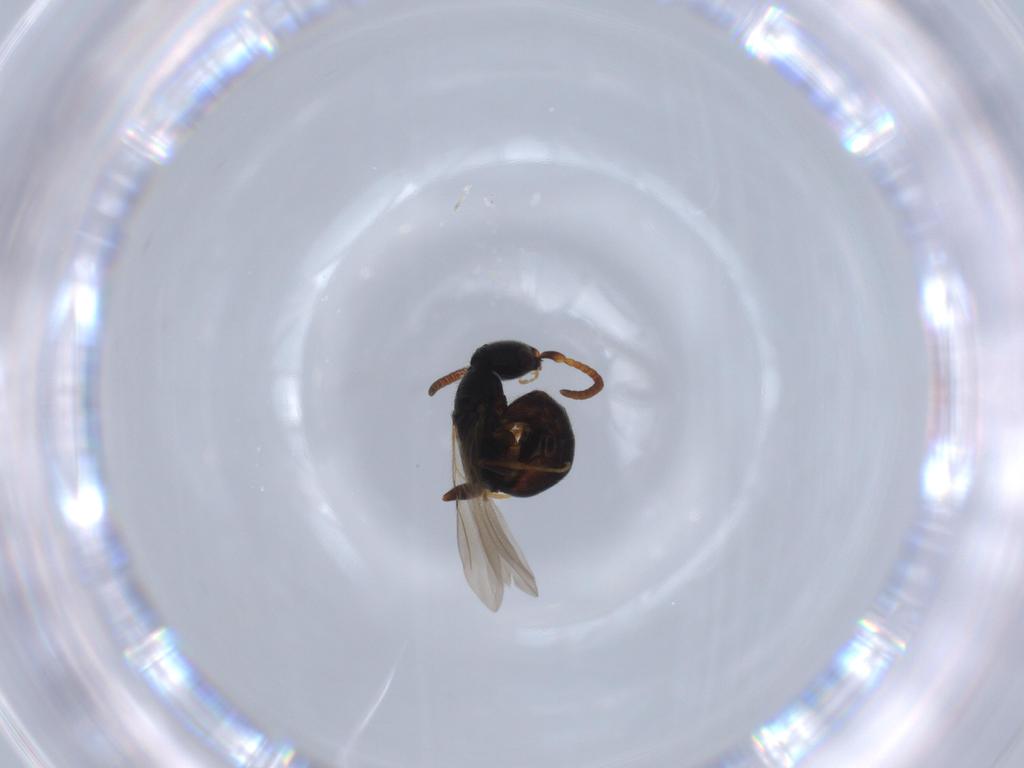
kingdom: Animalia
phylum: Arthropoda
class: Insecta
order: Hymenoptera
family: Bethylidae
